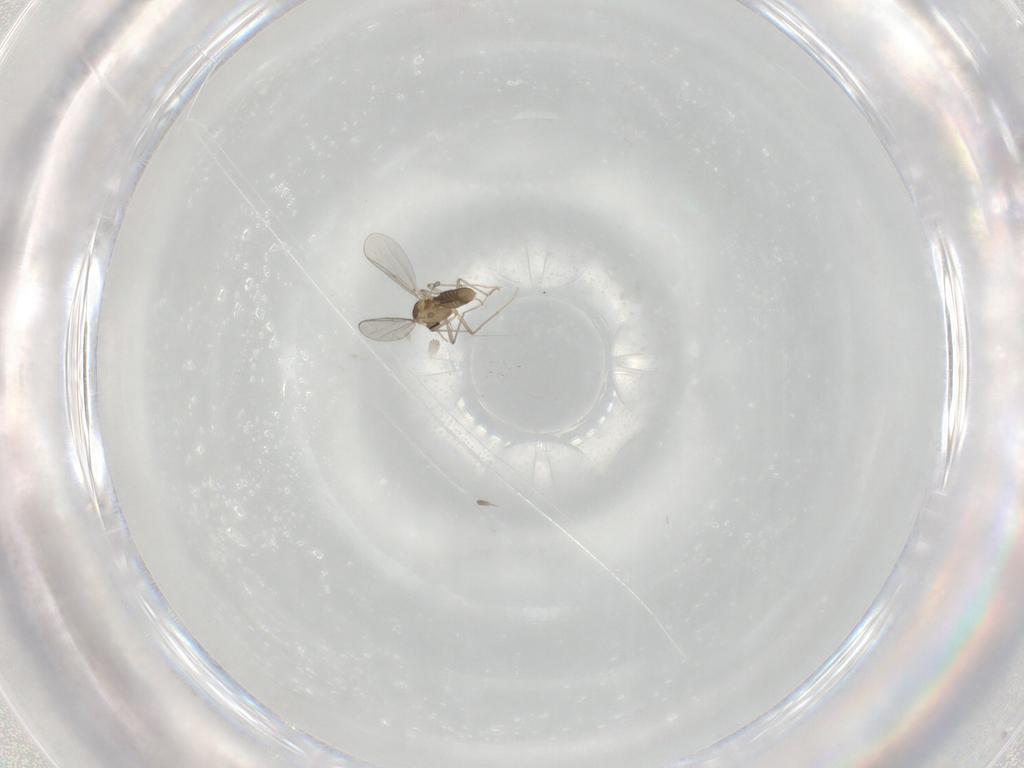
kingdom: Animalia
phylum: Arthropoda
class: Insecta
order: Diptera
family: Chironomidae
